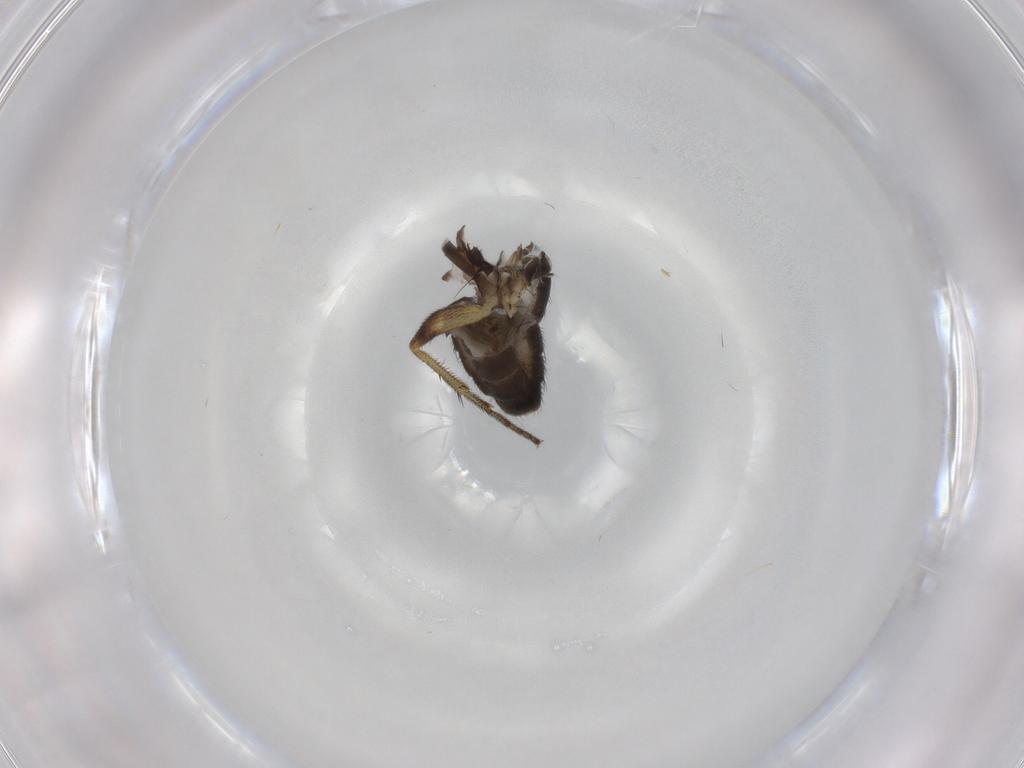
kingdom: Animalia
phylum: Arthropoda
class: Insecta
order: Diptera
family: Dolichopodidae
